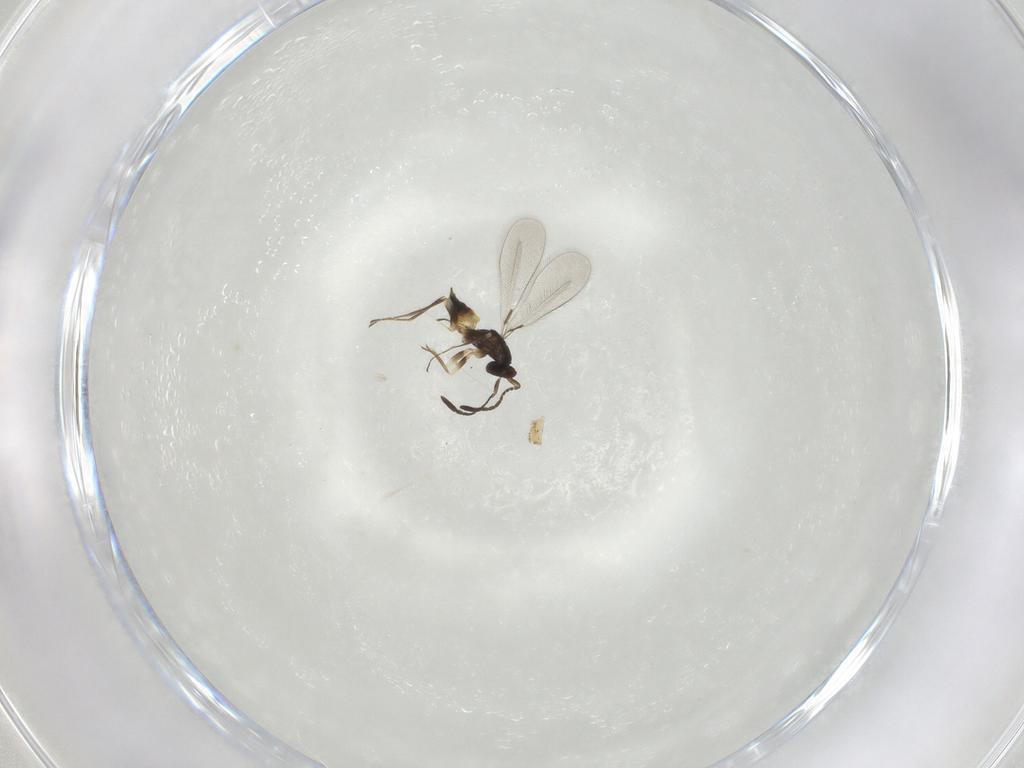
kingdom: Animalia
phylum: Arthropoda
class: Insecta
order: Hymenoptera
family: Mymaridae
